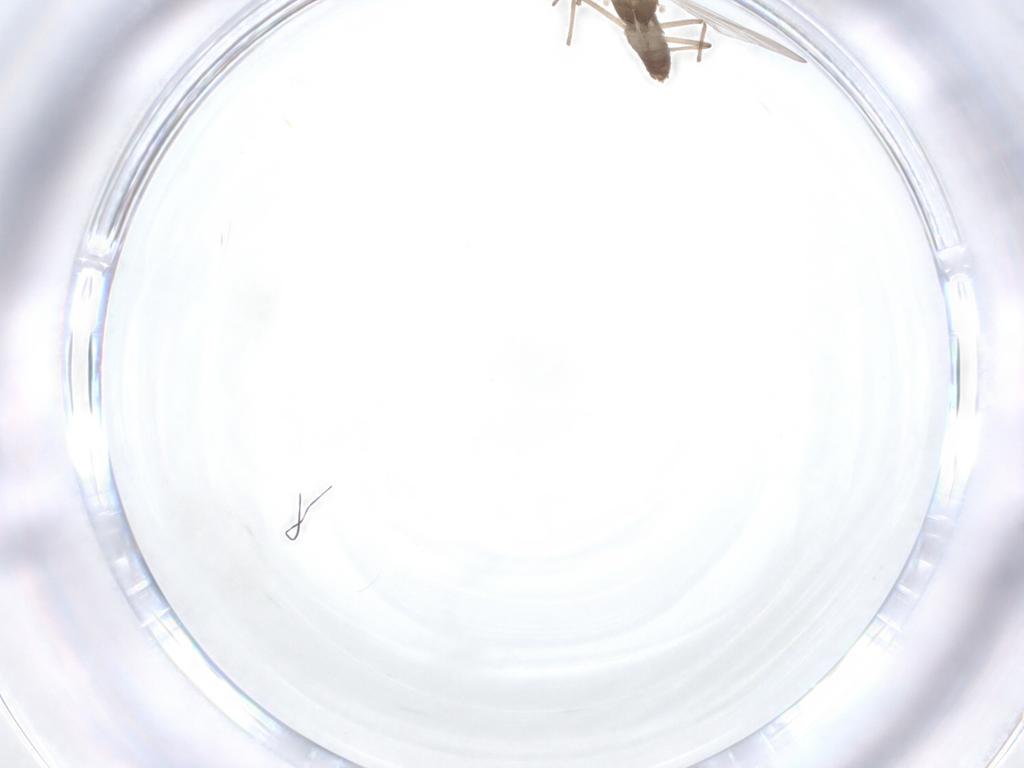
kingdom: Animalia
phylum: Arthropoda
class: Insecta
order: Diptera
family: Chironomidae
